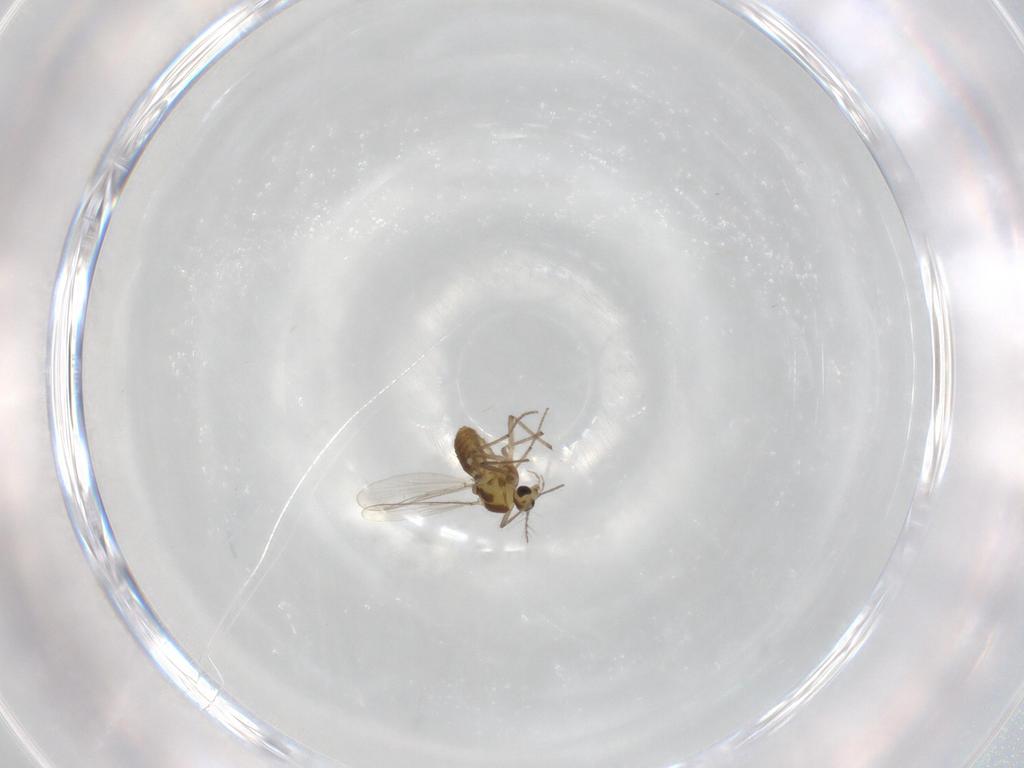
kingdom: Animalia
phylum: Arthropoda
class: Insecta
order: Diptera
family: Chironomidae
